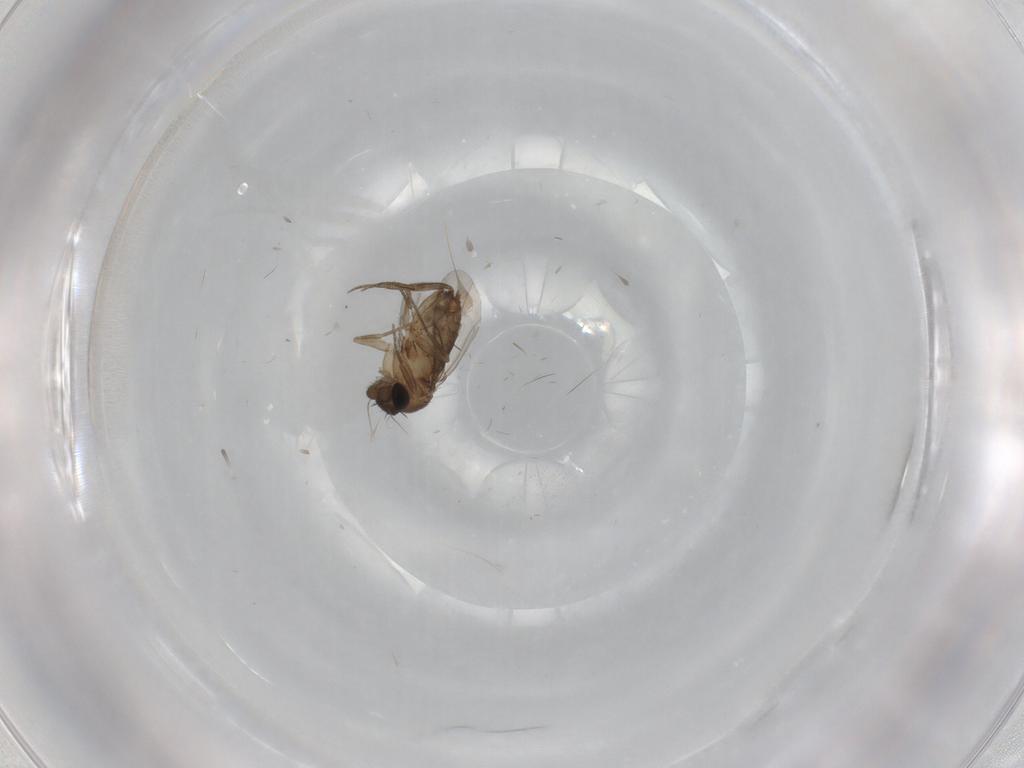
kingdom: Animalia
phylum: Arthropoda
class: Insecta
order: Diptera
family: Phoridae
